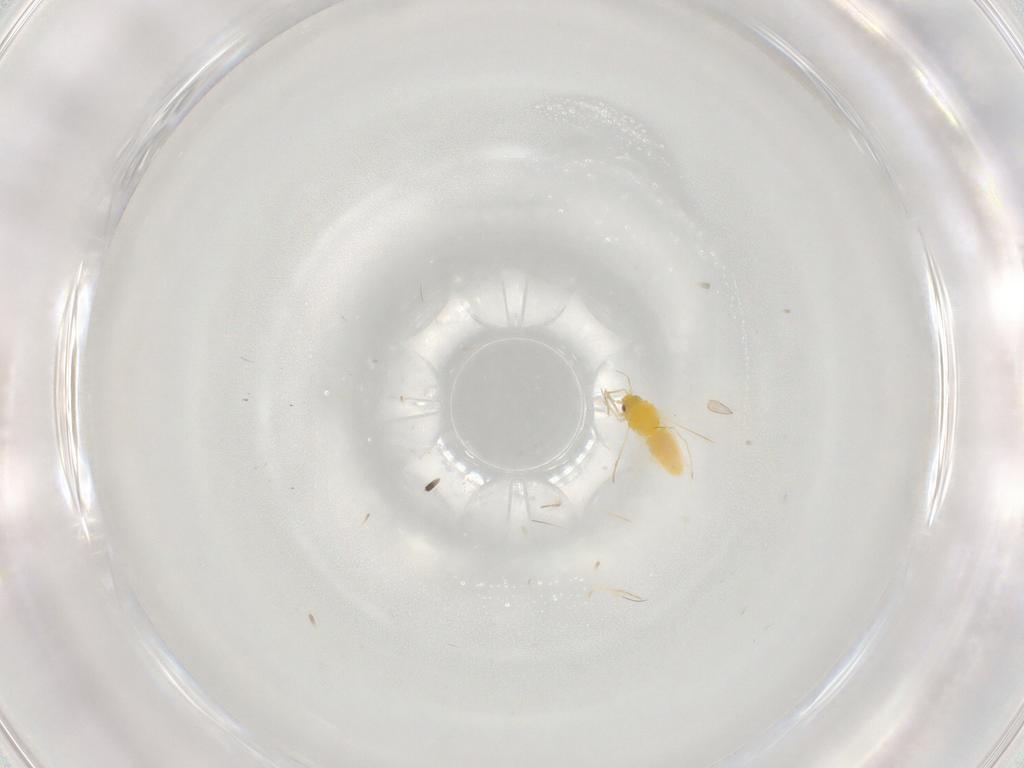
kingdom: Animalia
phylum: Arthropoda
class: Insecta
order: Hemiptera
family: Aleyrodidae
